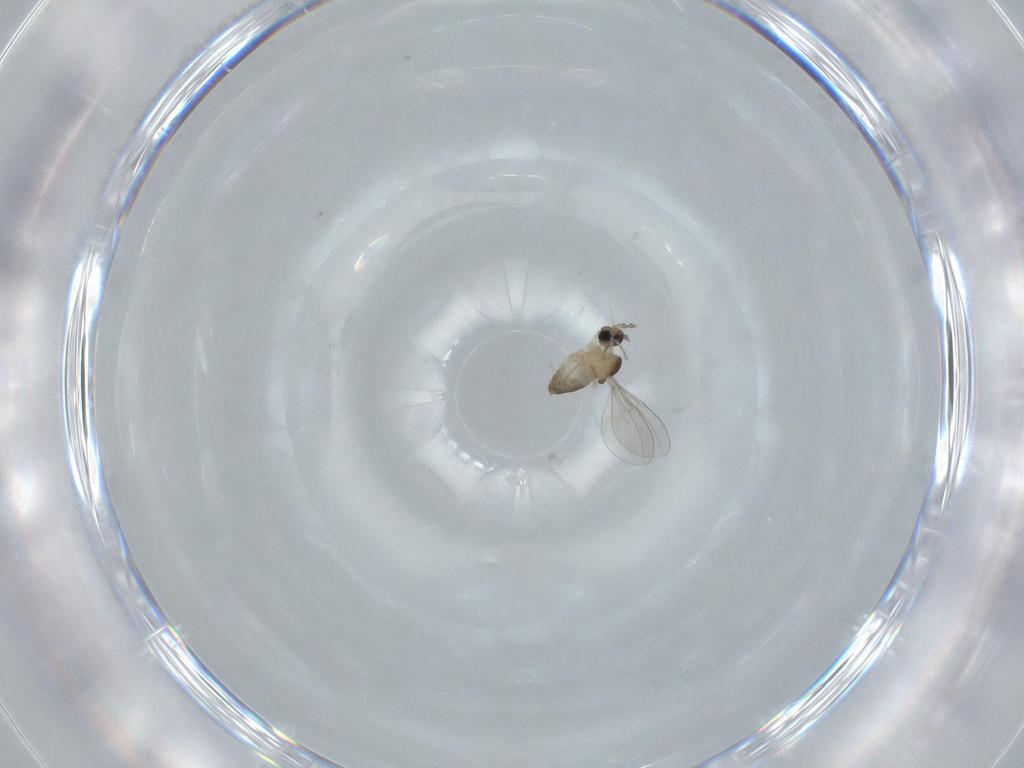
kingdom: Animalia
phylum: Arthropoda
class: Insecta
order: Diptera
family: Cecidomyiidae
